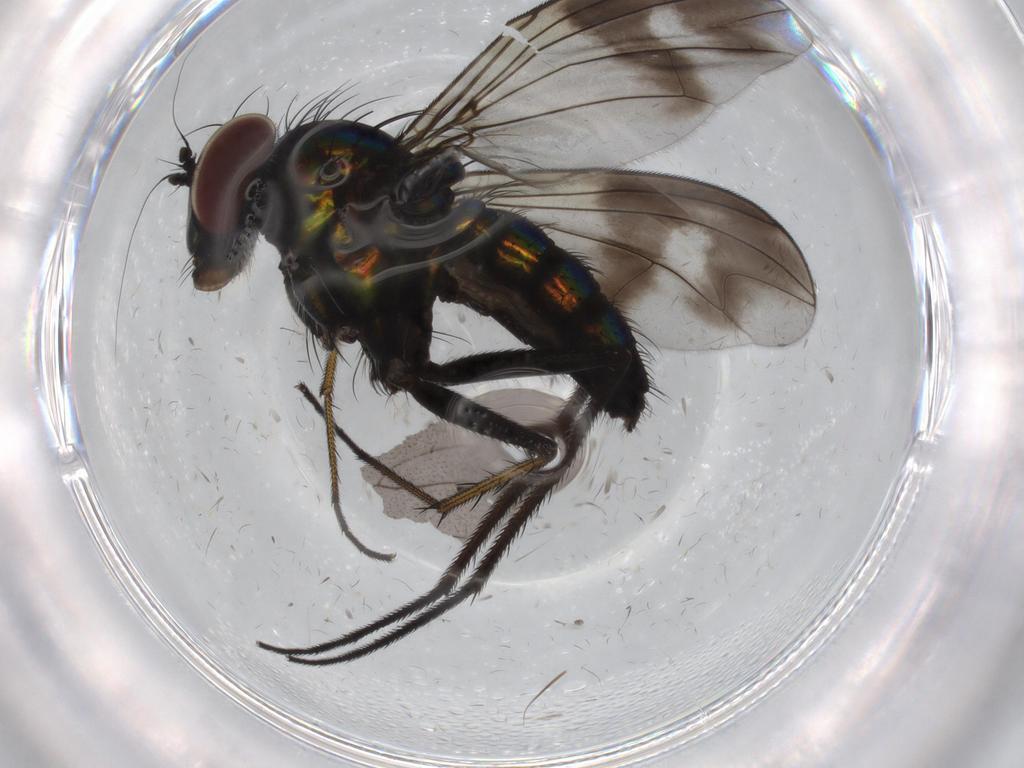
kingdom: Animalia
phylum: Arthropoda
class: Insecta
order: Diptera
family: Dolichopodidae
